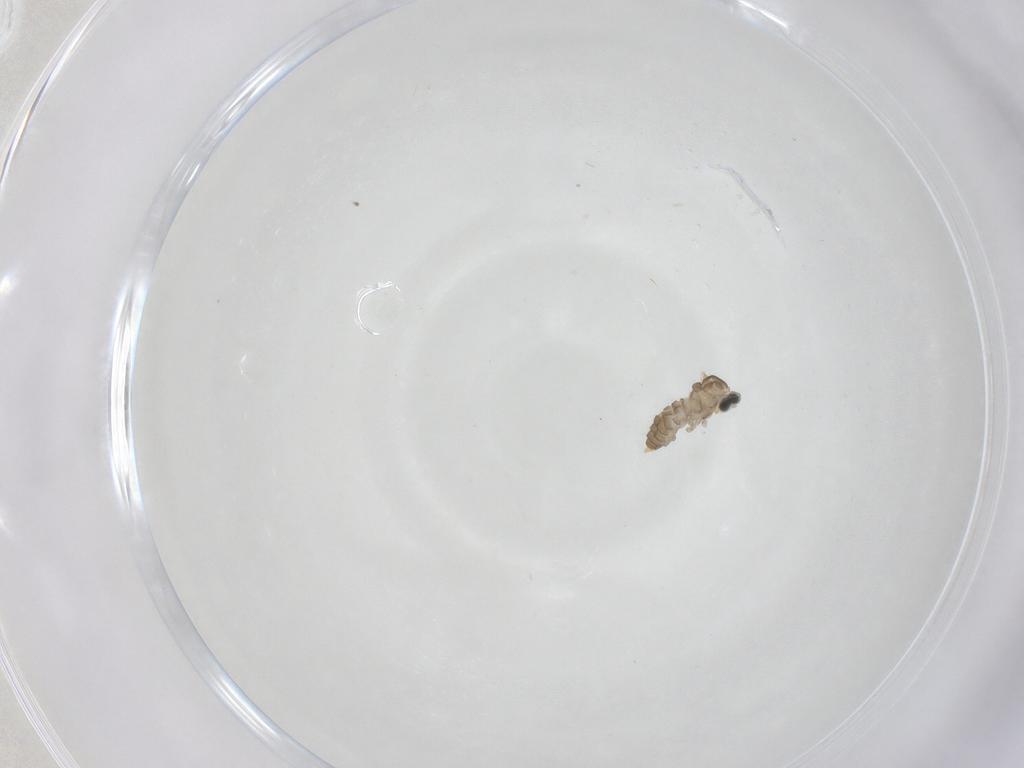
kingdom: Animalia
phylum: Arthropoda
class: Insecta
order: Diptera
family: Cecidomyiidae
